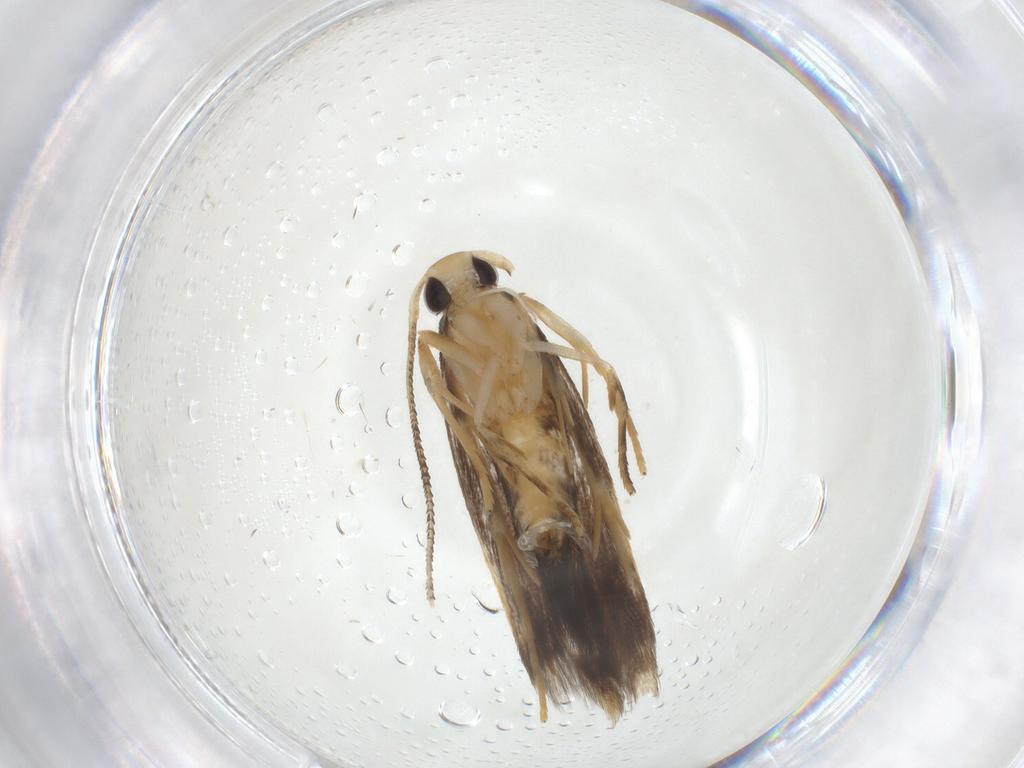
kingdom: Animalia
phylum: Arthropoda
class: Insecta
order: Lepidoptera
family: Cosmopterigidae
